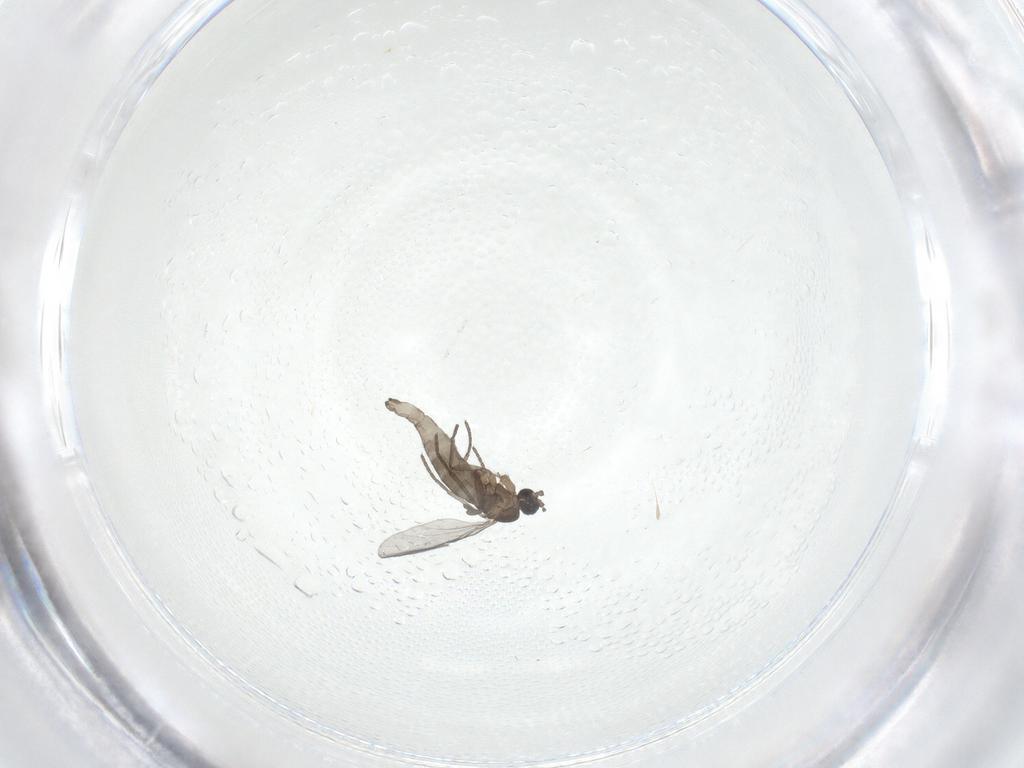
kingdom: Animalia
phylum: Arthropoda
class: Insecta
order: Diptera
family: Sciaridae
